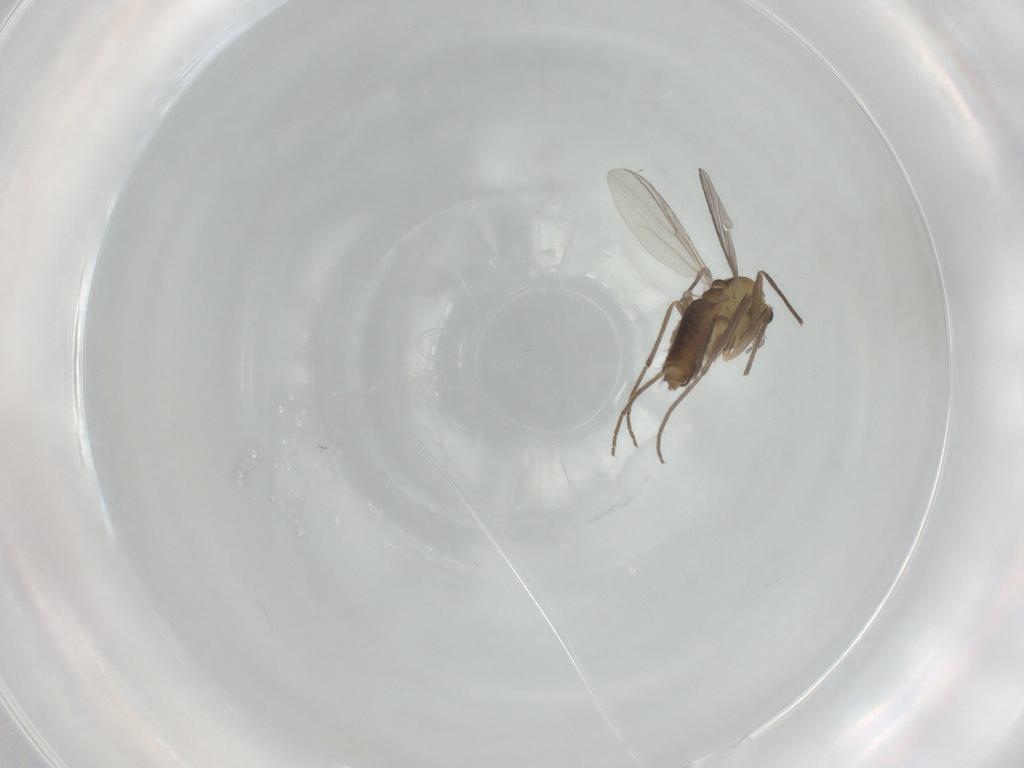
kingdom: Animalia
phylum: Arthropoda
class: Insecta
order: Diptera
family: Chironomidae
